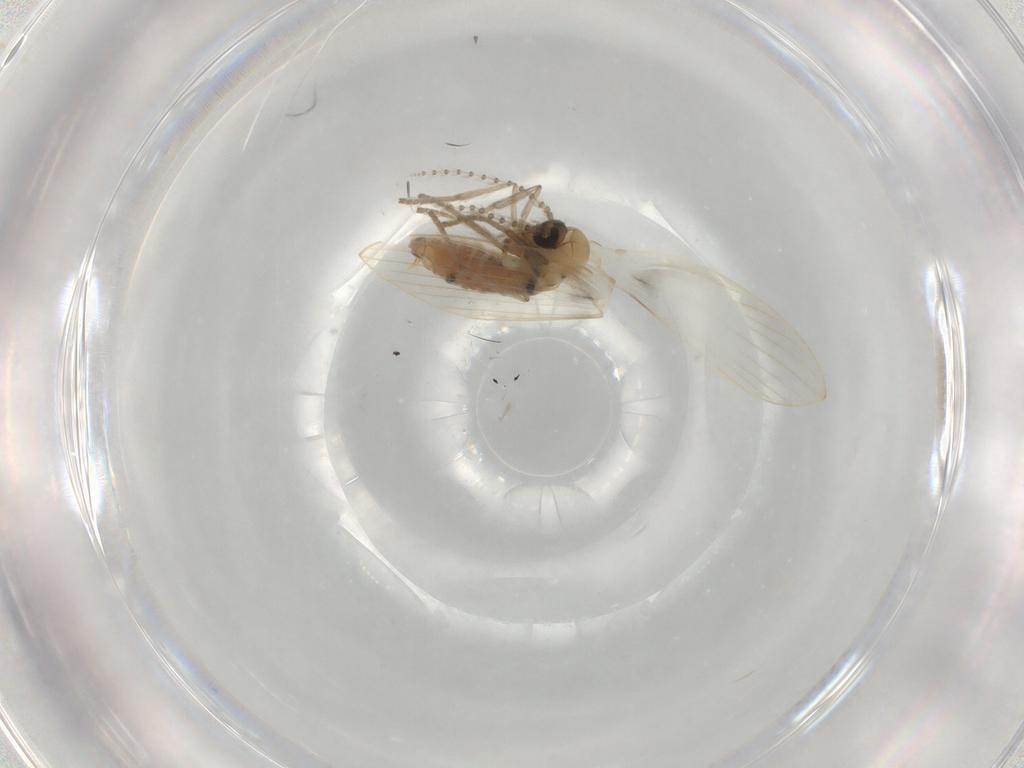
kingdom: Animalia
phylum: Arthropoda
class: Insecta
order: Diptera
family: Psychodidae
